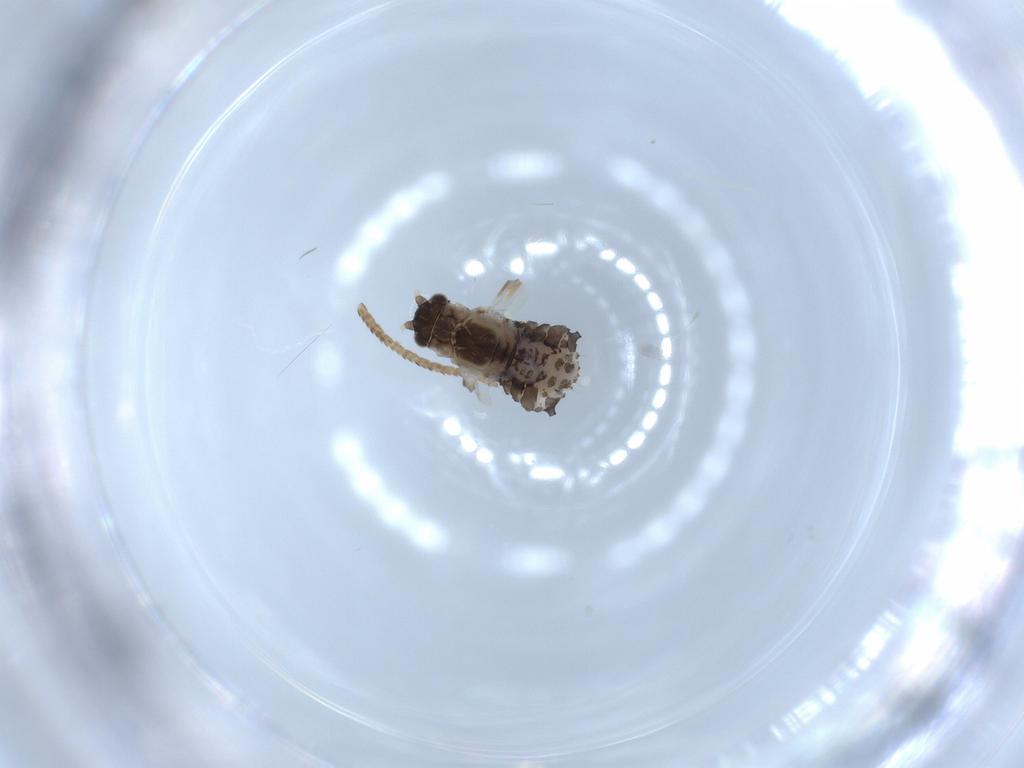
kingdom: Animalia
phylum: Arthropoda
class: Insecta
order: Hemiptera
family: Aphididae
